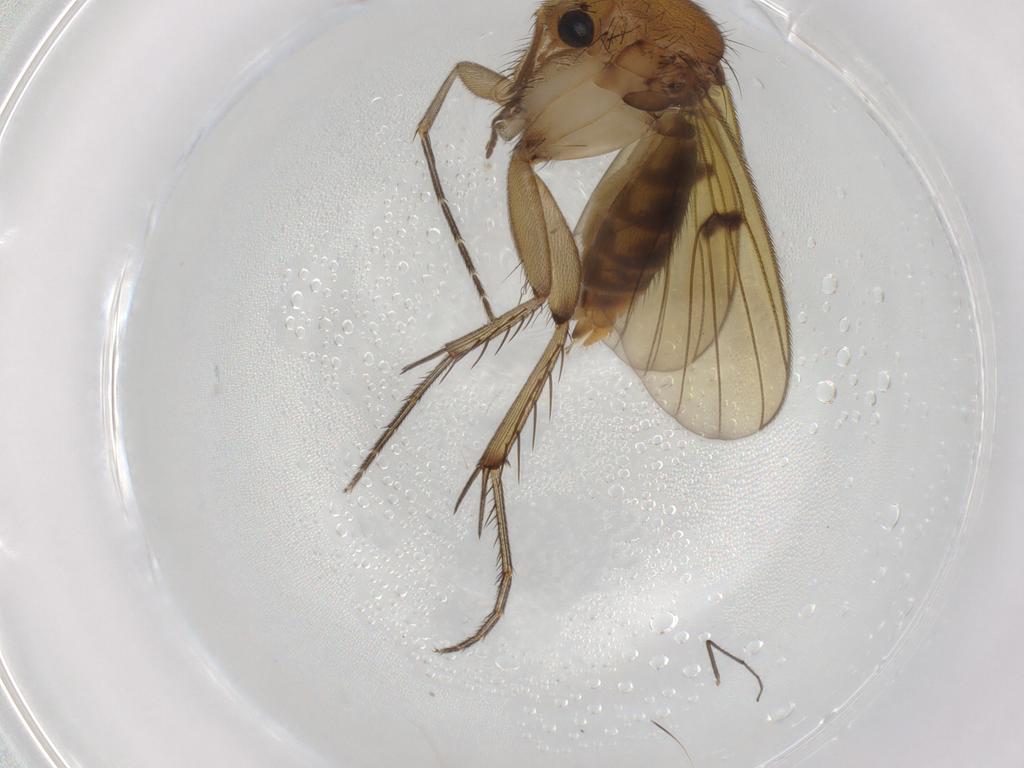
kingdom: Animalia
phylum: Arthropoda
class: Insecta
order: Diptera
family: Mycetophilidae
